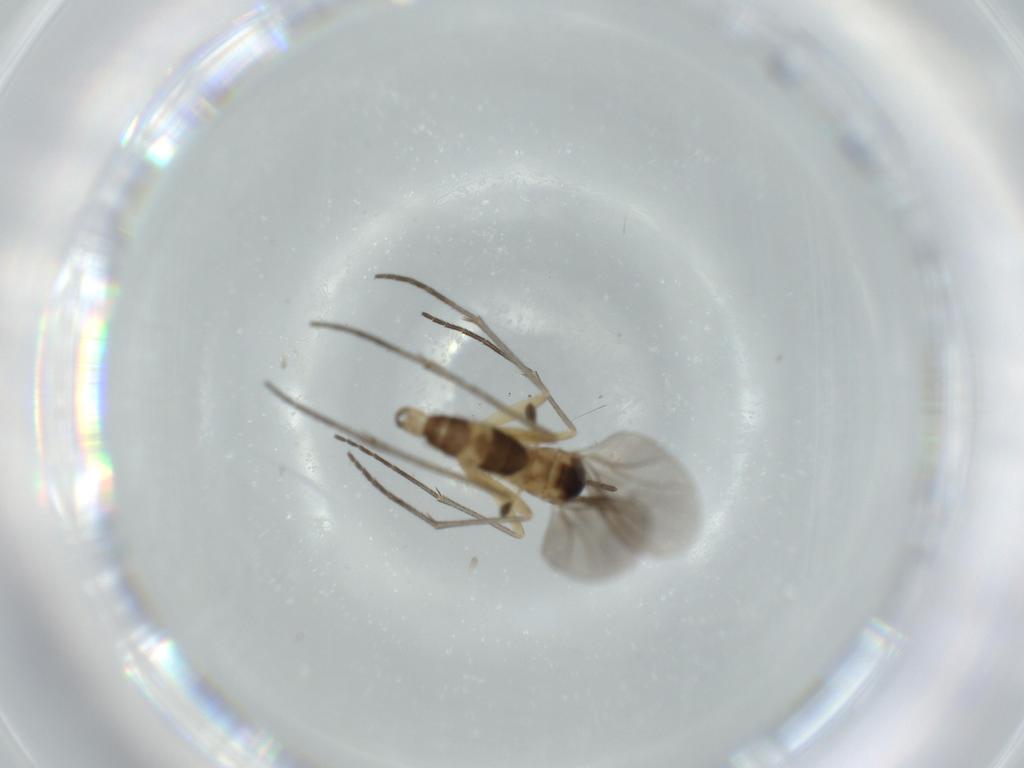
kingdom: Animalia
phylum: Arthropoda
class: Insecta
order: Diptera
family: Sciaridae
